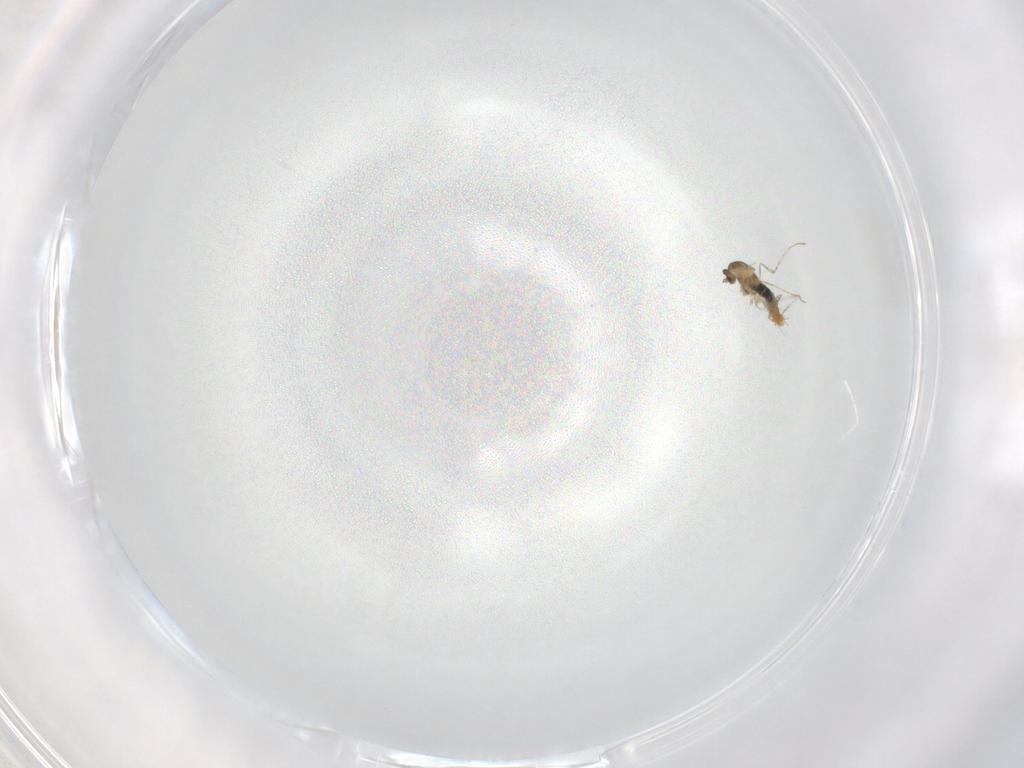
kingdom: Animalia
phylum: Arthropoda
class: Insecta
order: Diptera
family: Cecidomyiidae
